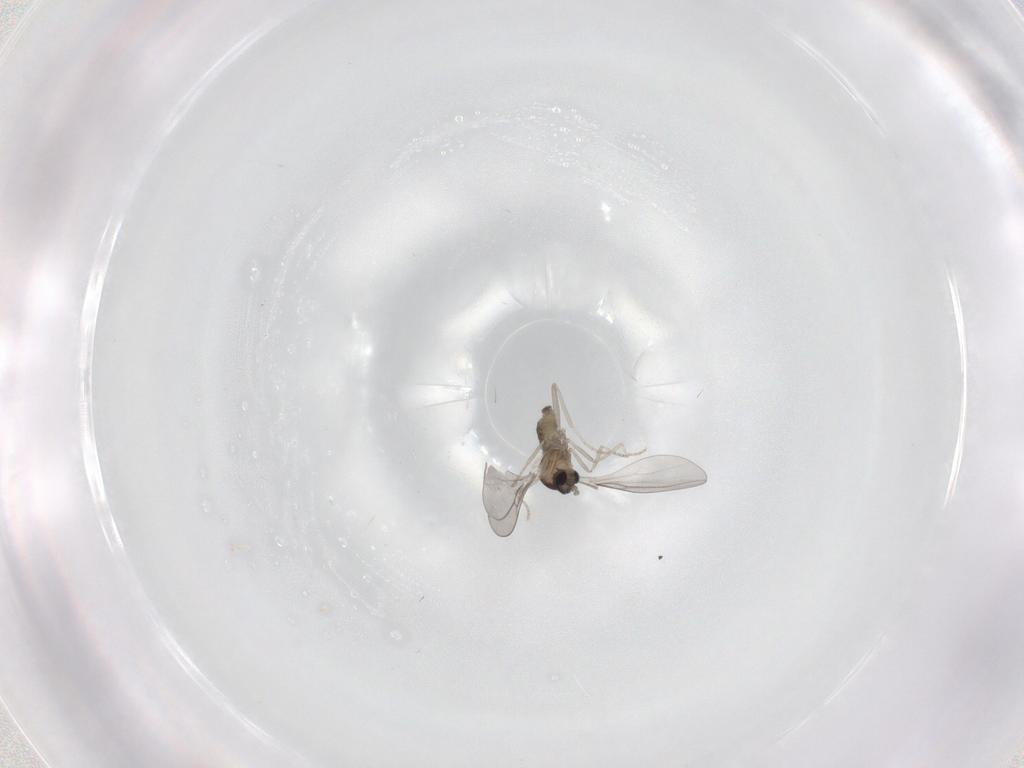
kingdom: Animalia
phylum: Arthropoda
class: Insecta
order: Diptera
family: Cecidomyiidae
